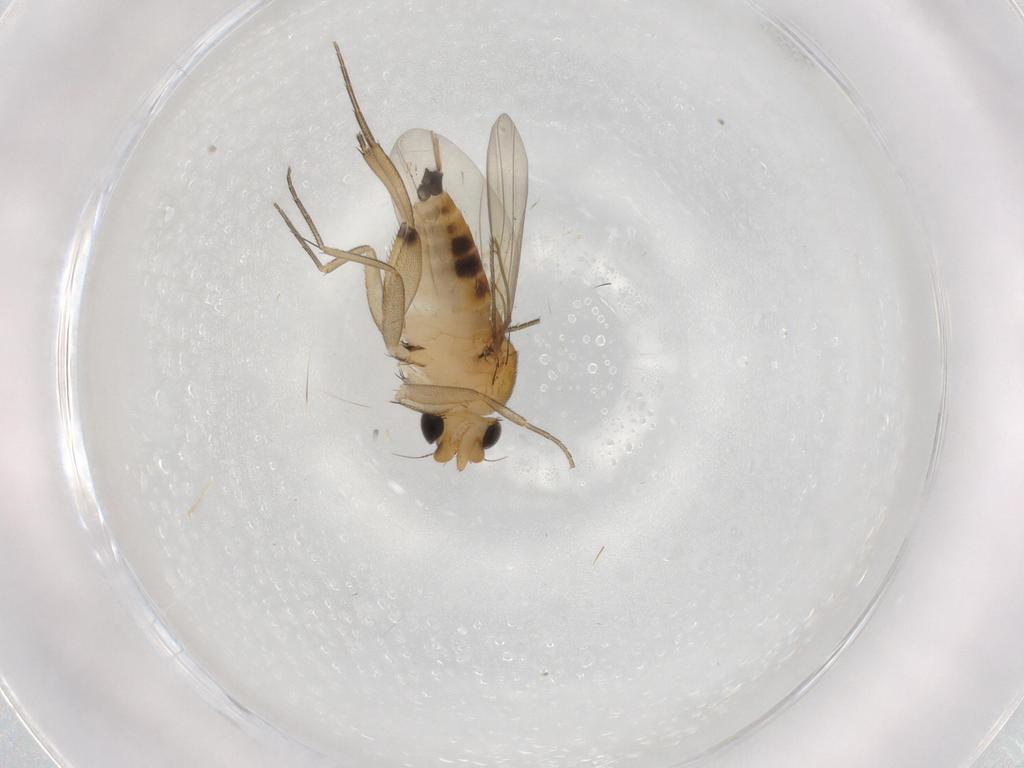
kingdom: Animalia
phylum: Arthropoda
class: Insecta
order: Diptera
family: Phoridae
